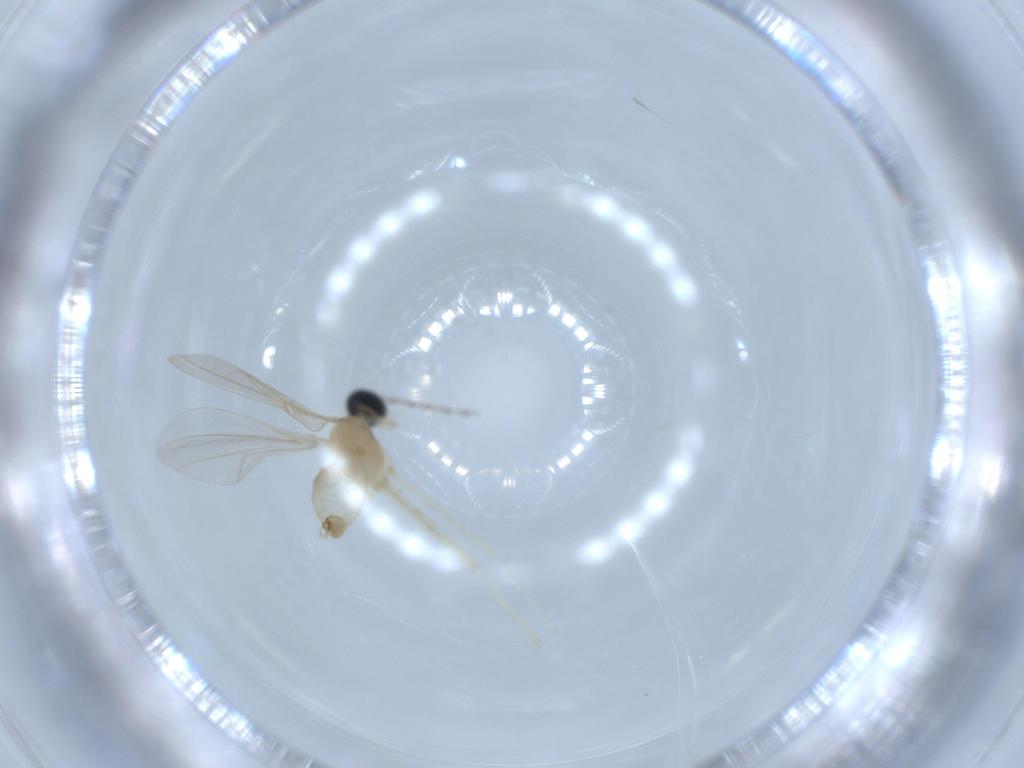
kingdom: Animalia
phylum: Arthropoda
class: Insecta
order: Diptera
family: Cecidomyiidae
